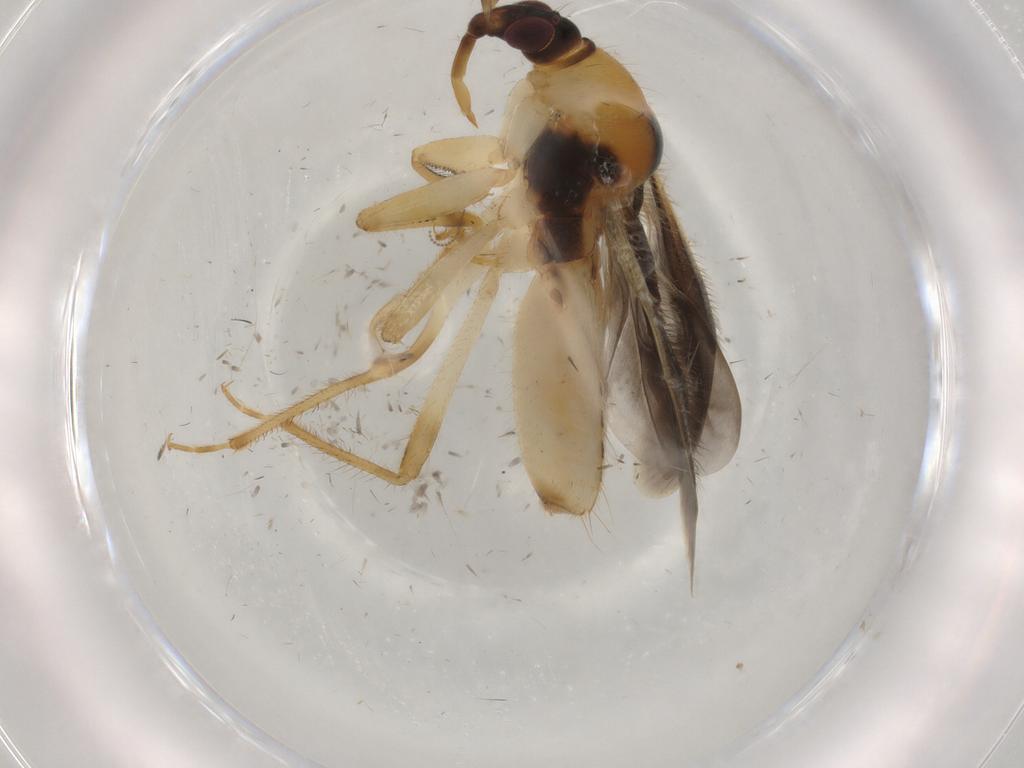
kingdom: Animalia
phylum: Arthropoda
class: Insecta
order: Hemiptera
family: Nabidae
